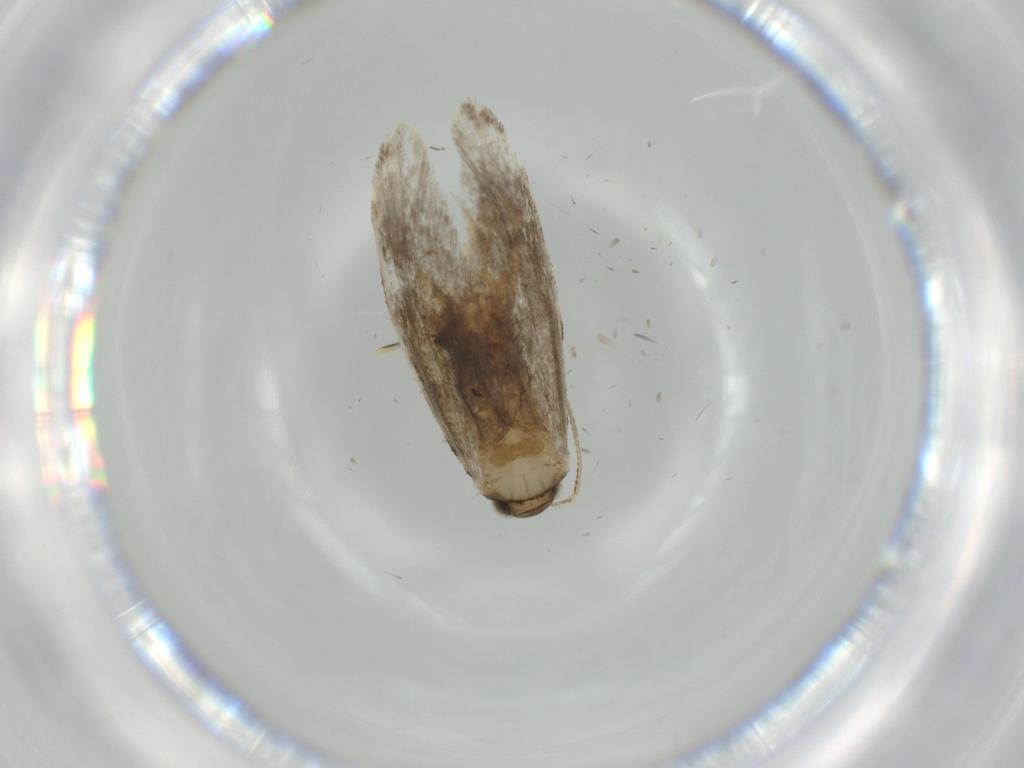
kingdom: Animalia
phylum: Arthropoda
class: Insecta
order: Lepidoptera
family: Tineidae
